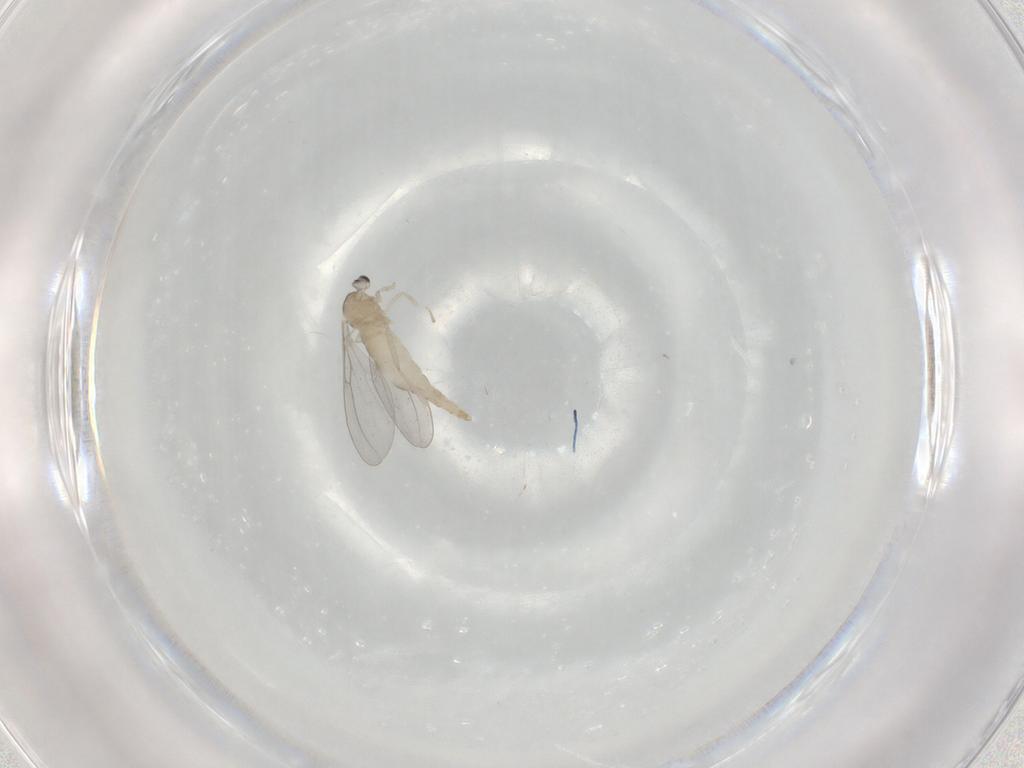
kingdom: Animalia
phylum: Arthropoda
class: Insecta
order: Diptera
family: Cecidomyiidae
